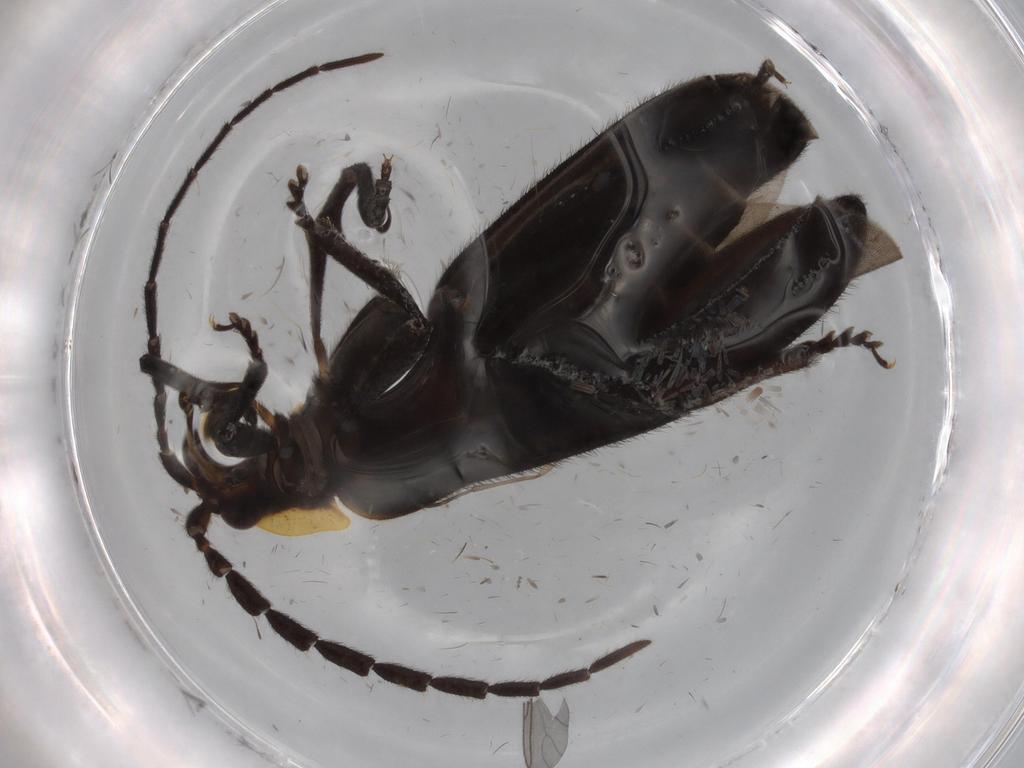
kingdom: Animalia
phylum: Arthropoda
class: Insecta
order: Coleoptera
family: Lycidae
